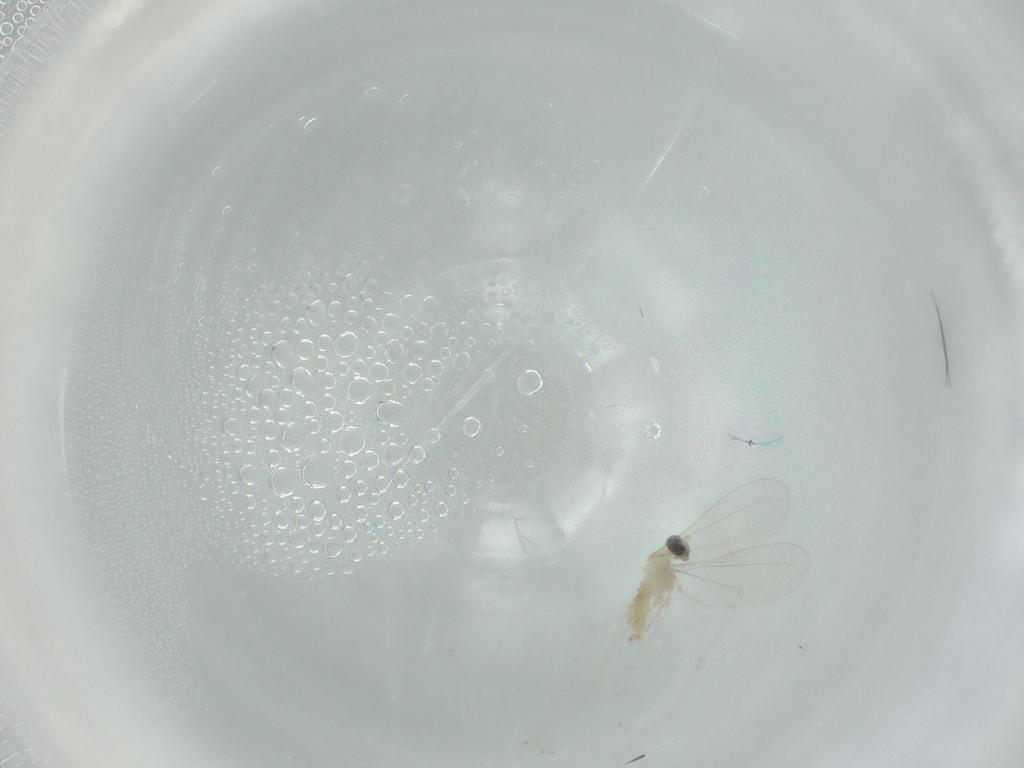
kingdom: Animalia
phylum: Arthropoda
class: Insecta
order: Diptera
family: Cecidomyiidae
